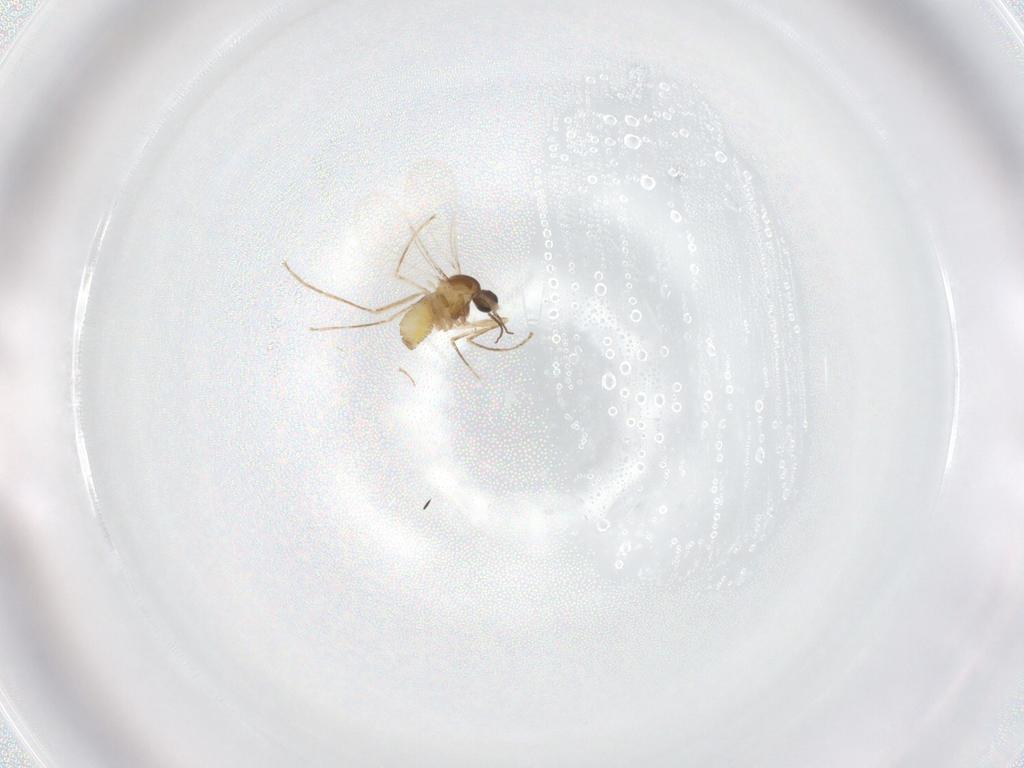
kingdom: Animalia
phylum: Arthropoda
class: Insecta
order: Diptera
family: Cecidomyiidae
